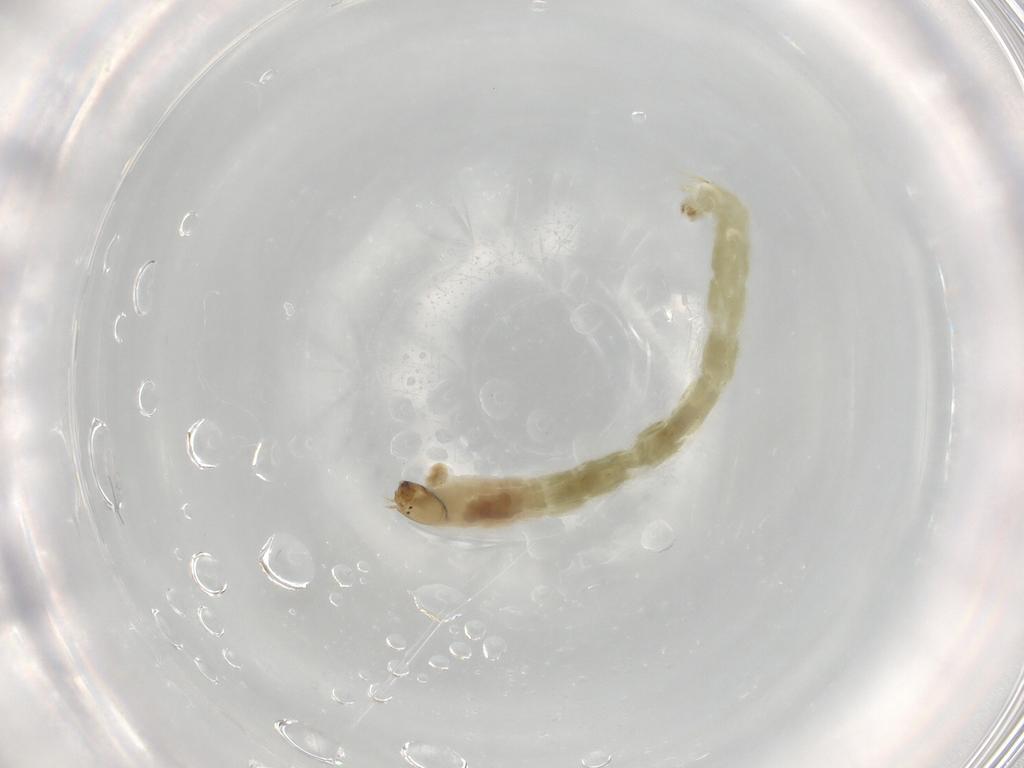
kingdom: Animalia
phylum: Arthropoda
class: Insecta
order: Diptera
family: Chironomidae
